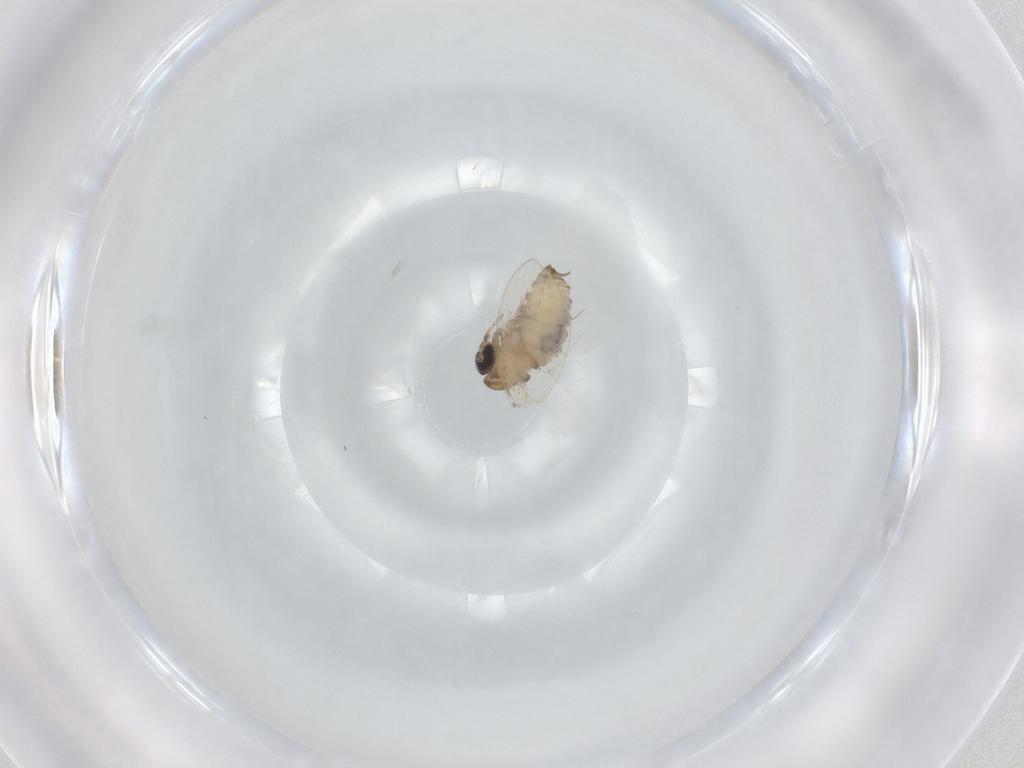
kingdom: Animalia
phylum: Arthropoda
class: Insecta
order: Diptera
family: Psychodidae
